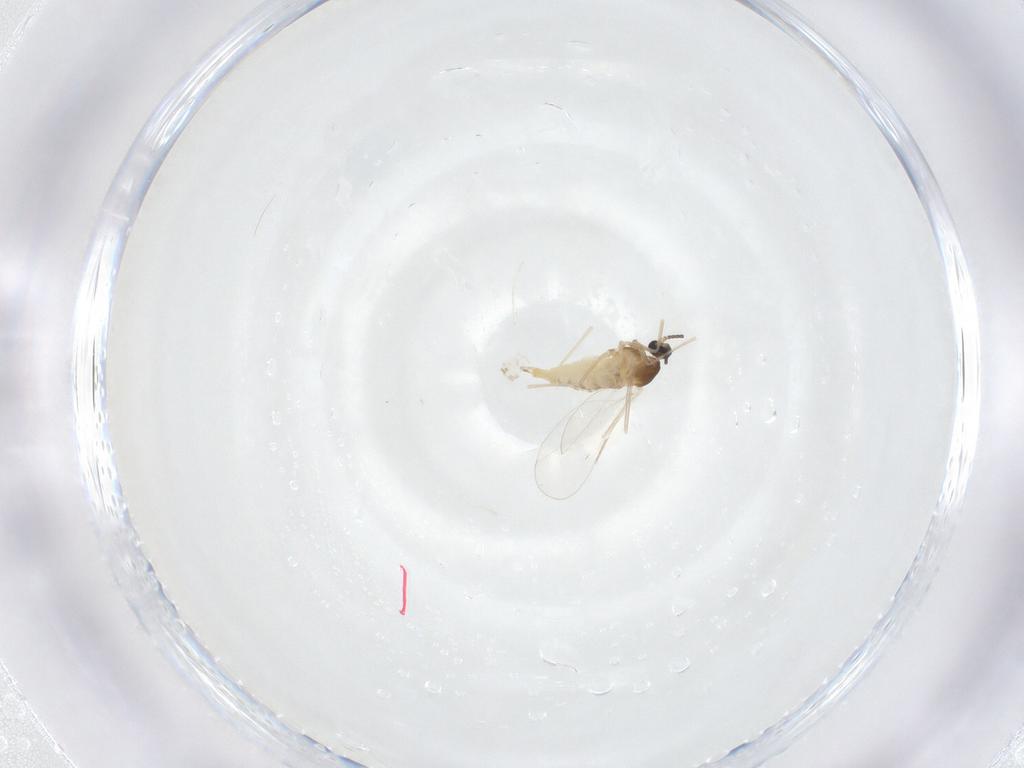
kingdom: Animalia
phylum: Arthropoda
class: Insecta
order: Diptera
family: Cecidomyiidae
